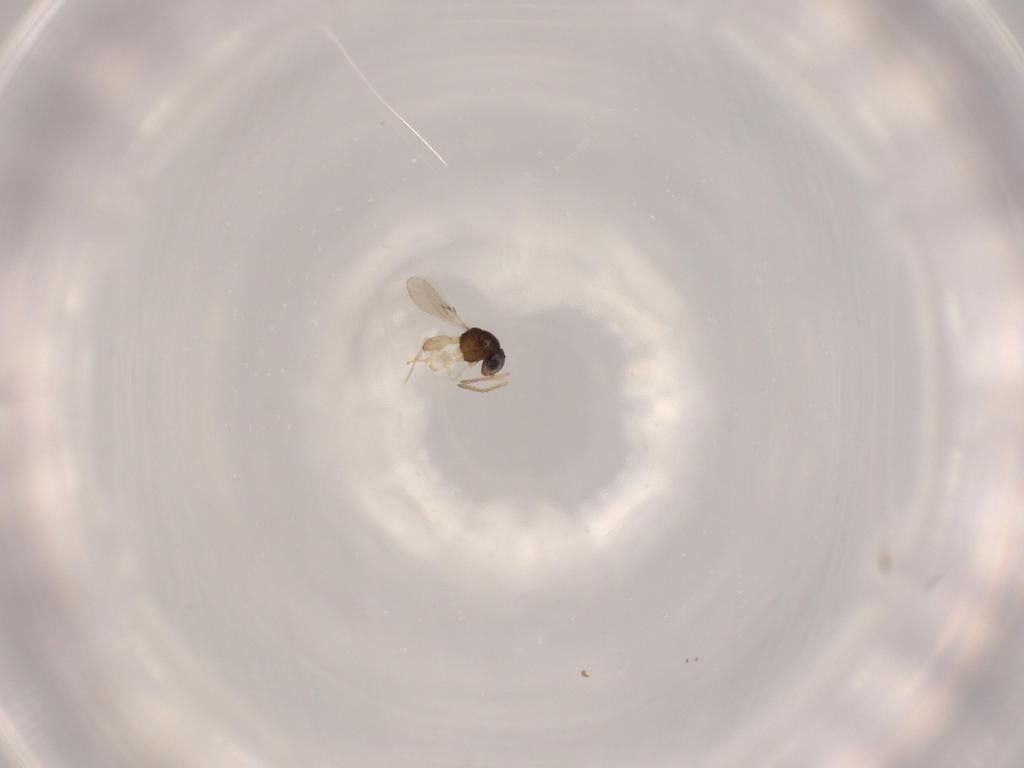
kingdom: Animalia
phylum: Arthropoda
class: Insecta
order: Hymenoptera
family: Scelionidae
